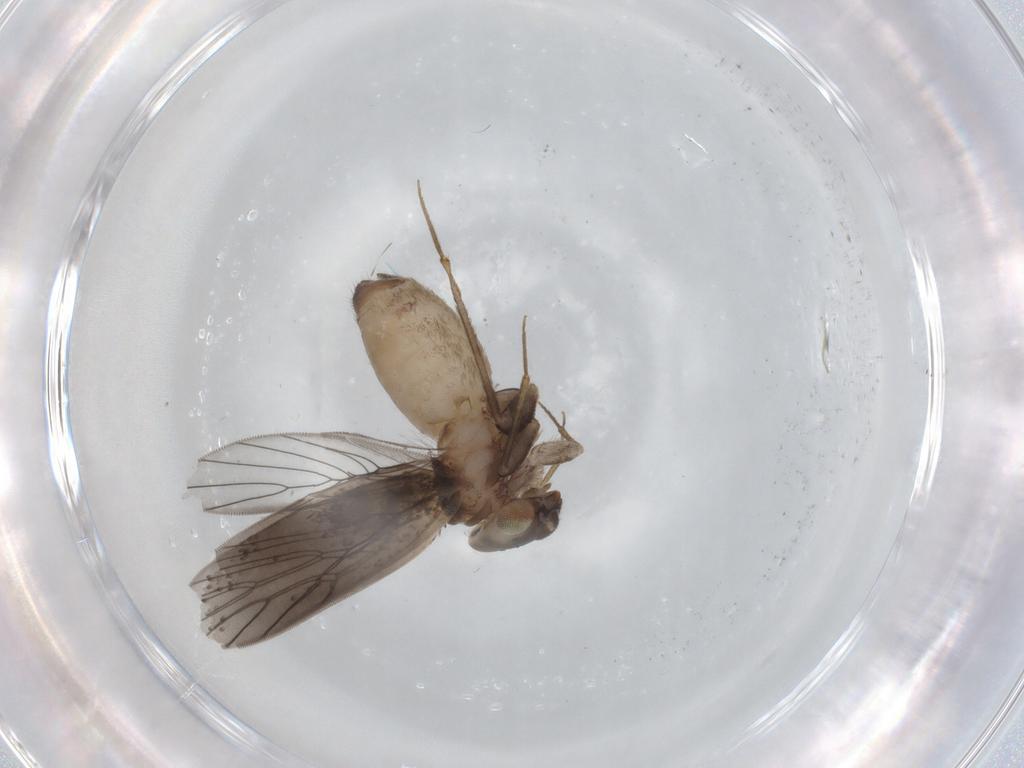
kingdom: Animalia
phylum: Arthropoda
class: Insecta
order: Psocodea
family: Lepidopsocidae
